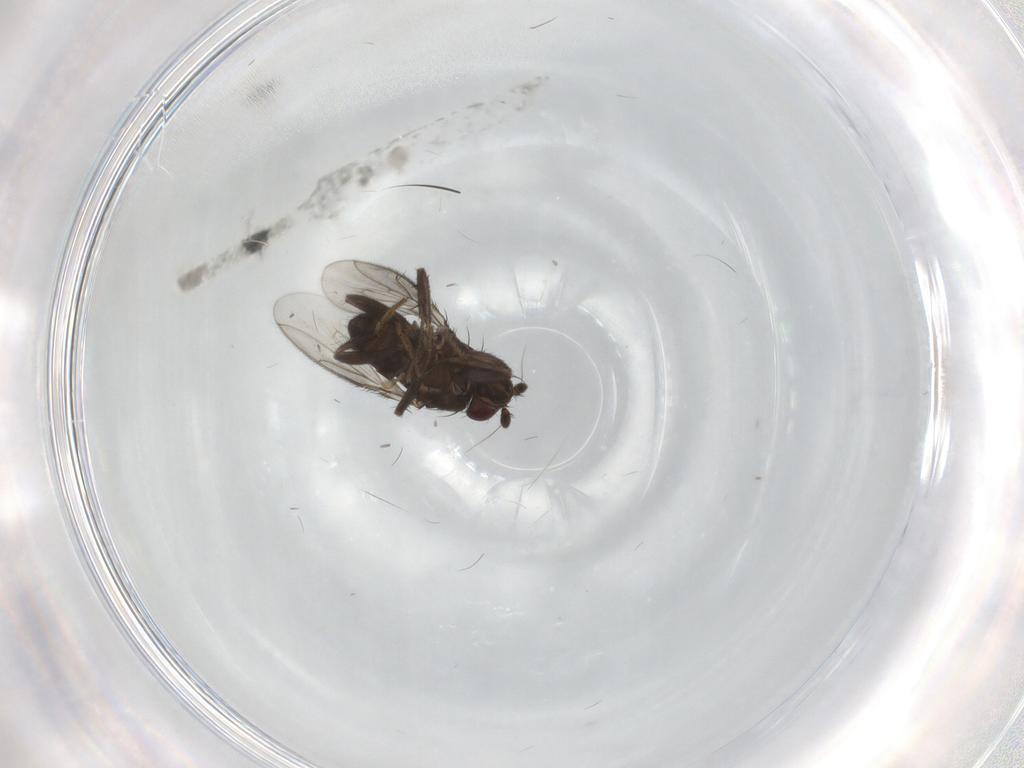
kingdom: Animalia
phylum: Arthropoda
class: Insecta
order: Diptera
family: Sphaeroceridae
